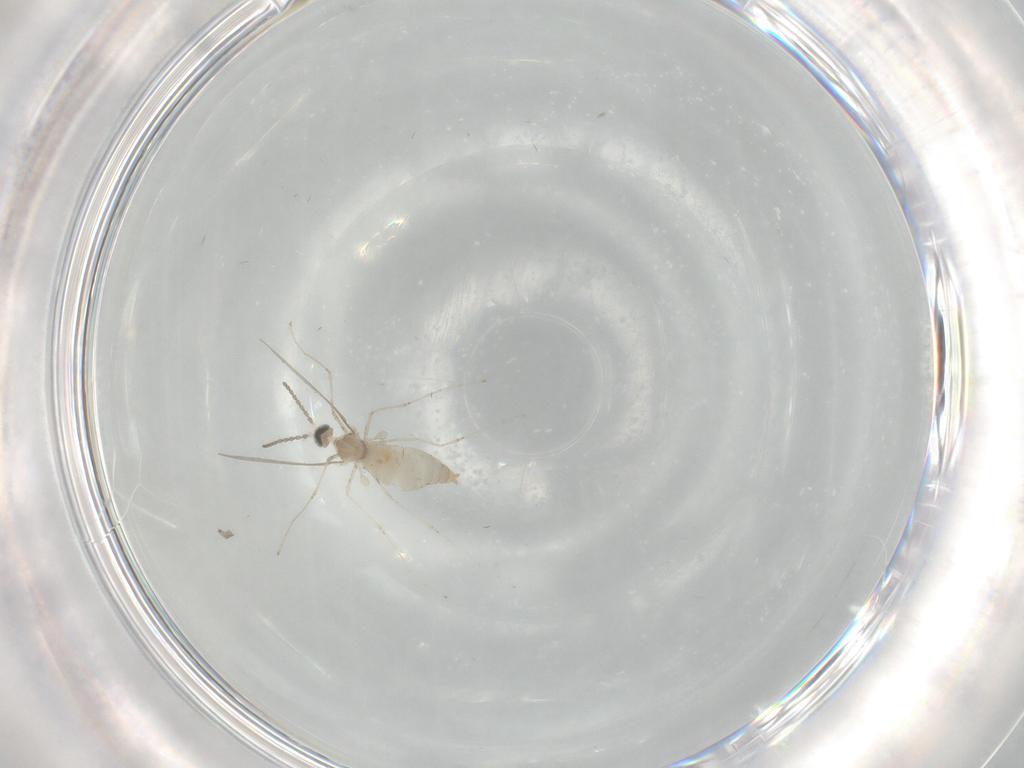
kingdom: Animalia
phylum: Arthropoda
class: Insecta
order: Diptera
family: Cecidomyiidae
